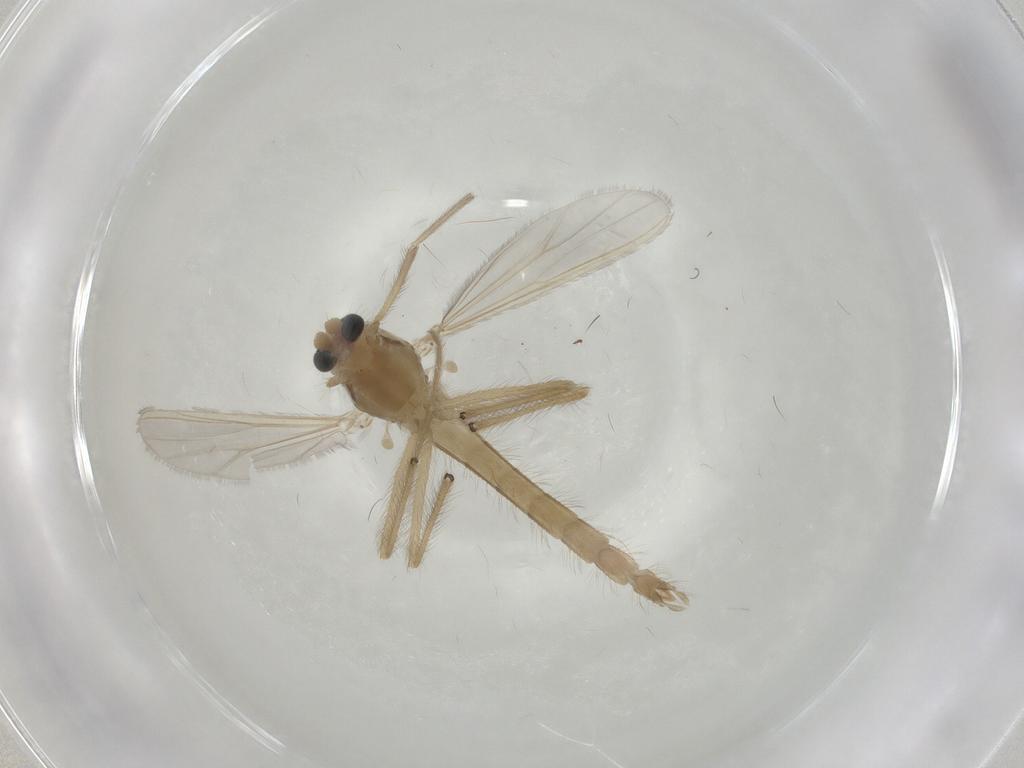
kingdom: Animalia
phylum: Arthropoda
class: Insecta
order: Diptera
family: Chironomidae
